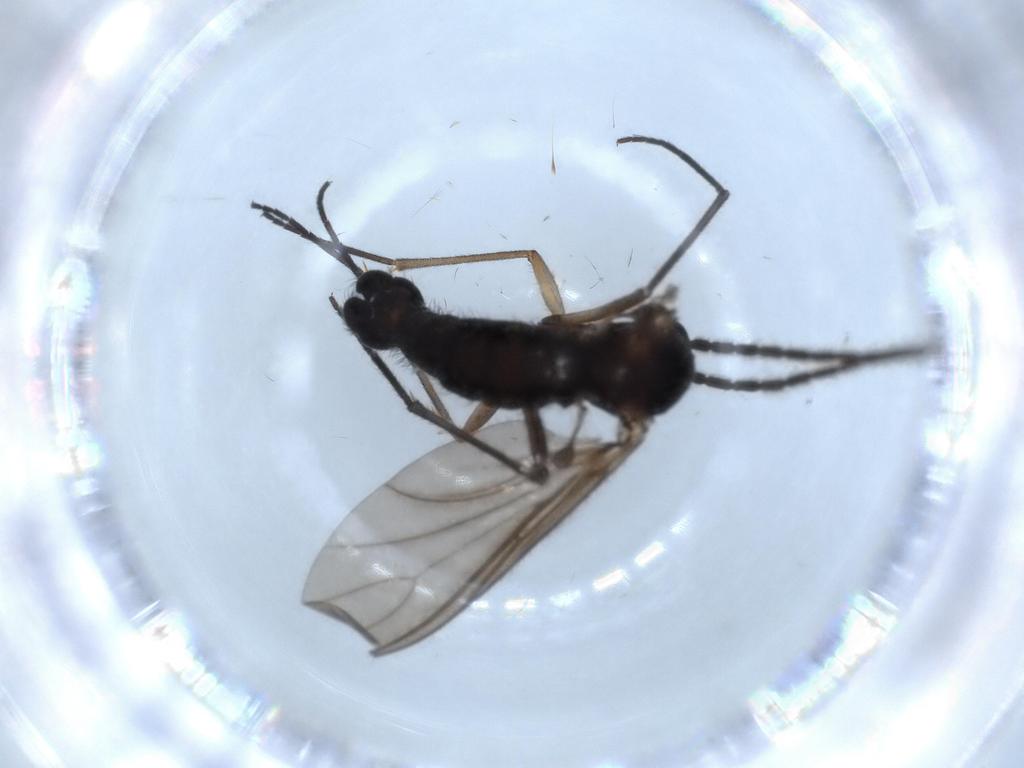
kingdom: Animalia
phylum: Arthropoda
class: Insecta
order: Diptera
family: Sciaridae
